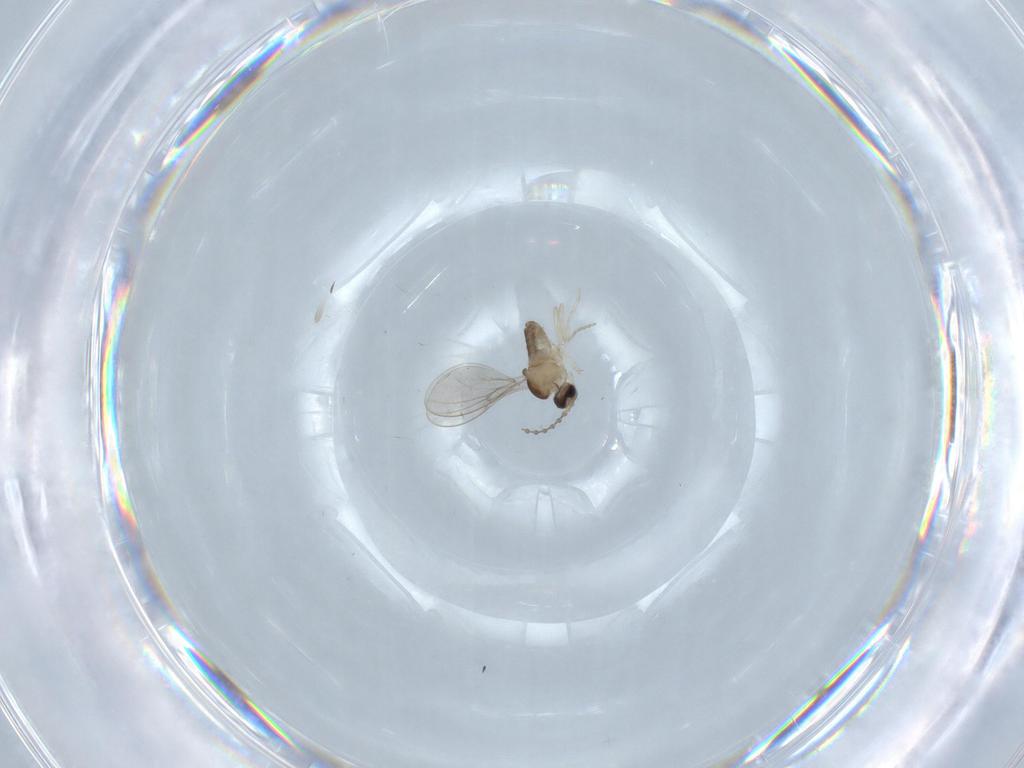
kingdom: Animalia
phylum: Arthropoda
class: Insecta
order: Diptera
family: Cecidomyiidae
